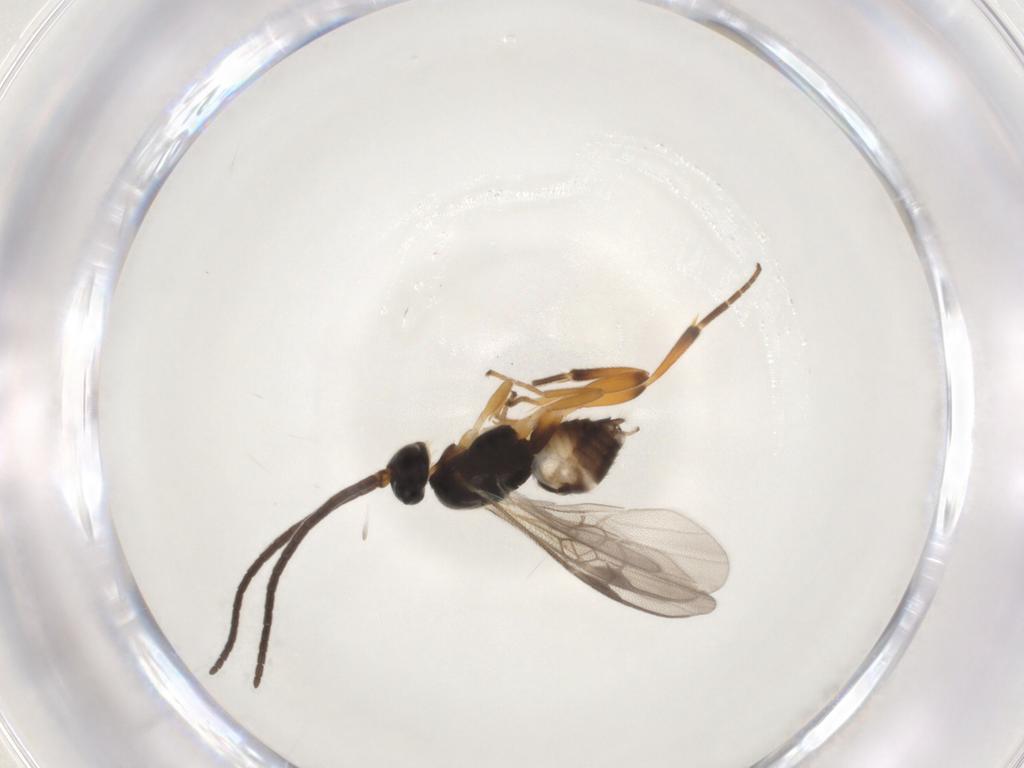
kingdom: Animalia
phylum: Arthropoda
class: Insecta
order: Hymenoptera
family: Braconidae
